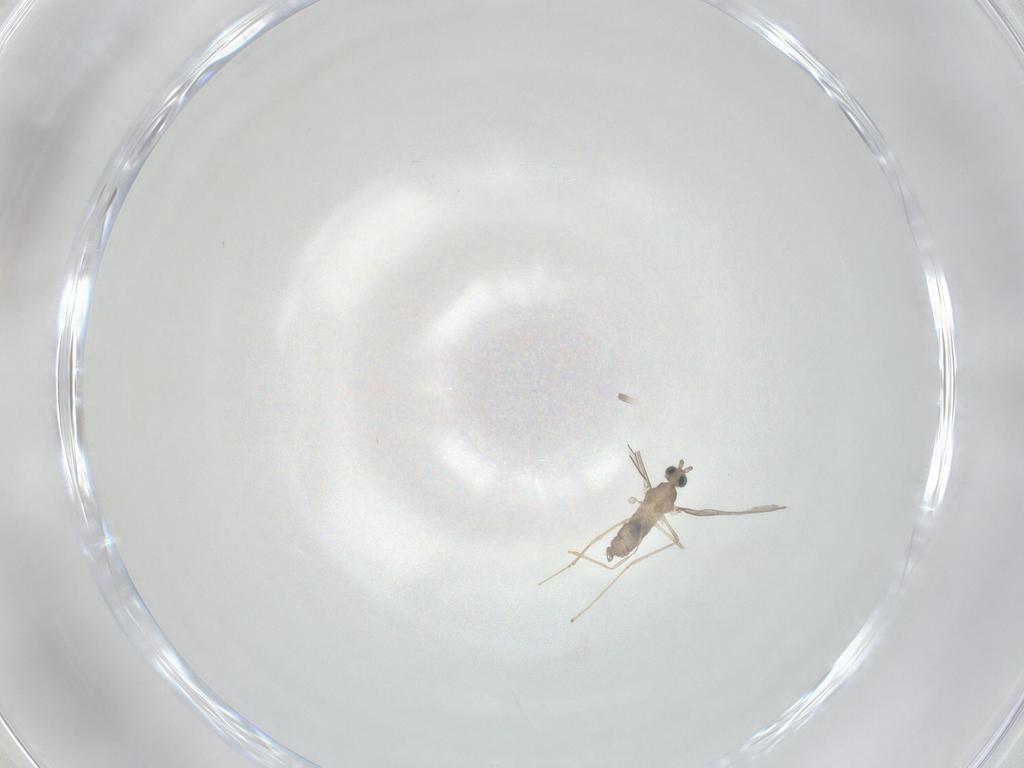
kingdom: Animalia
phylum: Arthropoda
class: Insecta
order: Diptera
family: Cecidomyiidae
